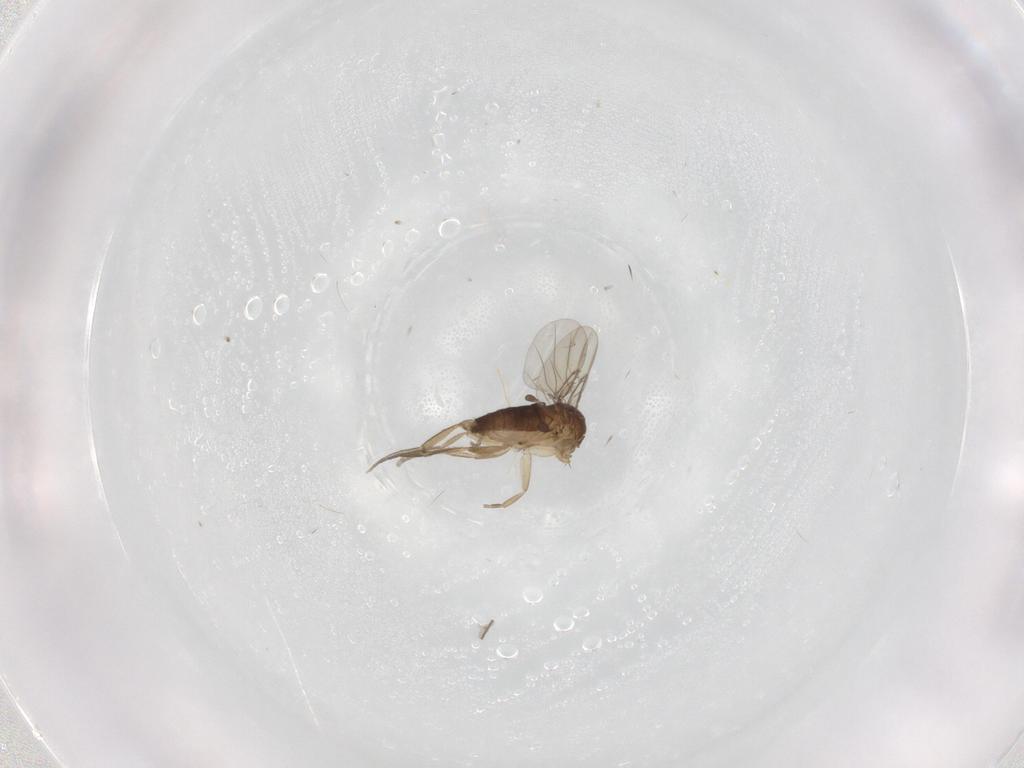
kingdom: Animalia
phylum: Arthropoda
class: Insecta
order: Diptera
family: Phoridae
